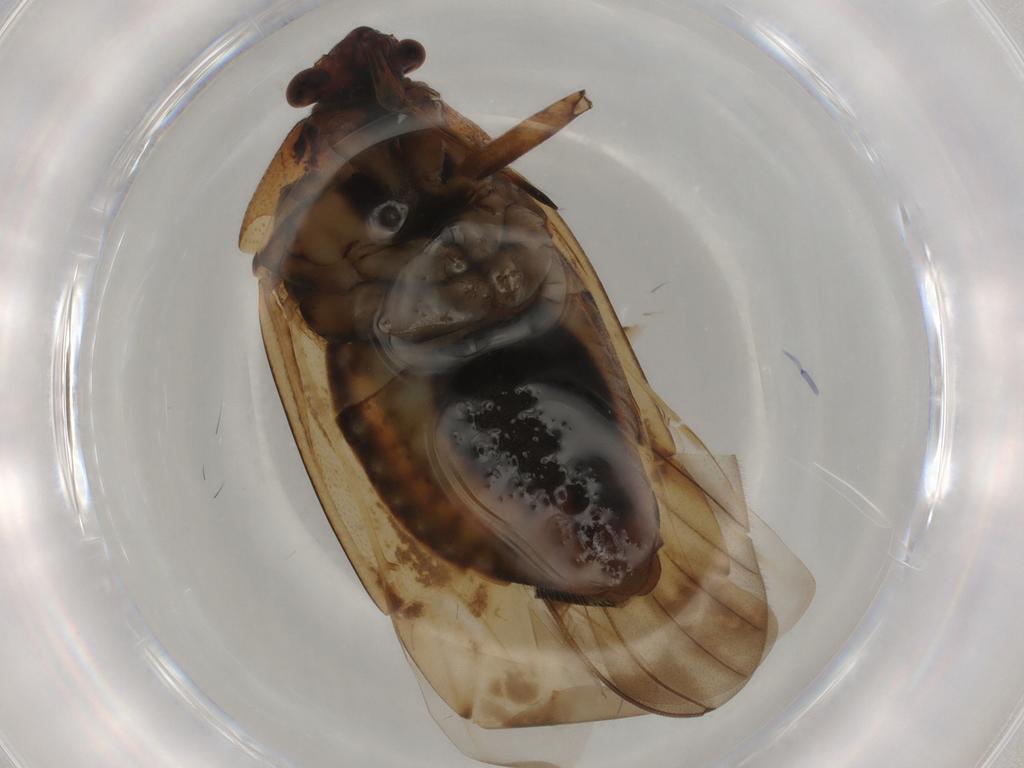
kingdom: Animalia
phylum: Arthropoda
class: Insecta
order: Hemiptera
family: Miridae
